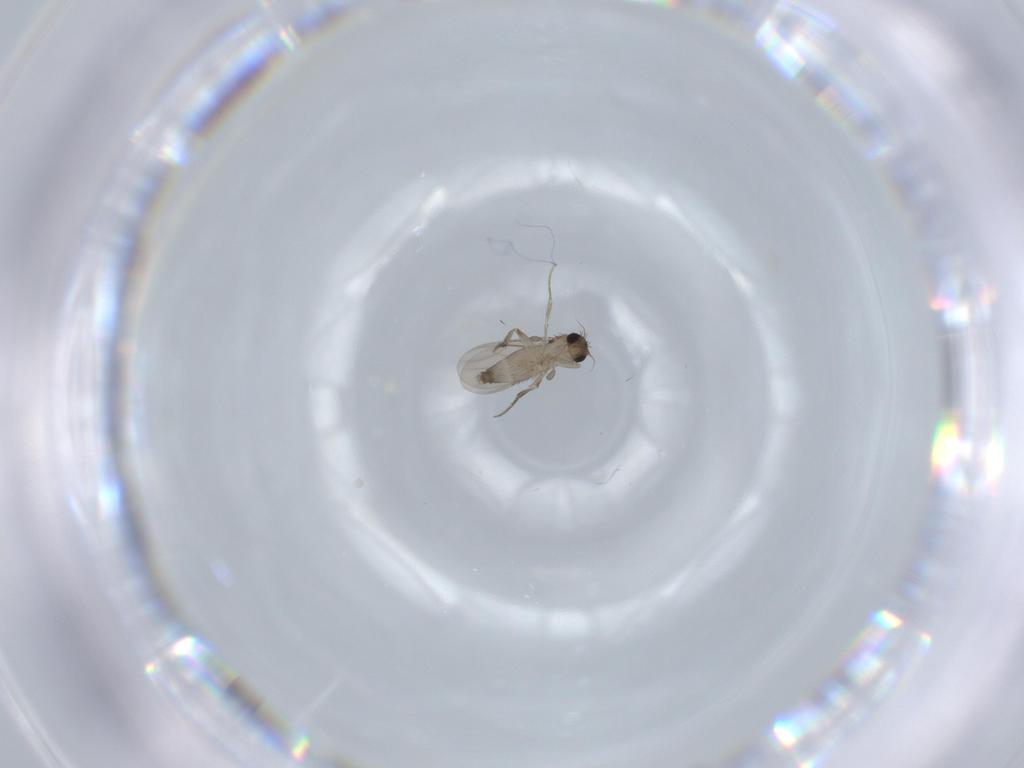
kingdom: Animalia
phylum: Arthropoda
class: Insecta
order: Diptera
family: Phoridae
